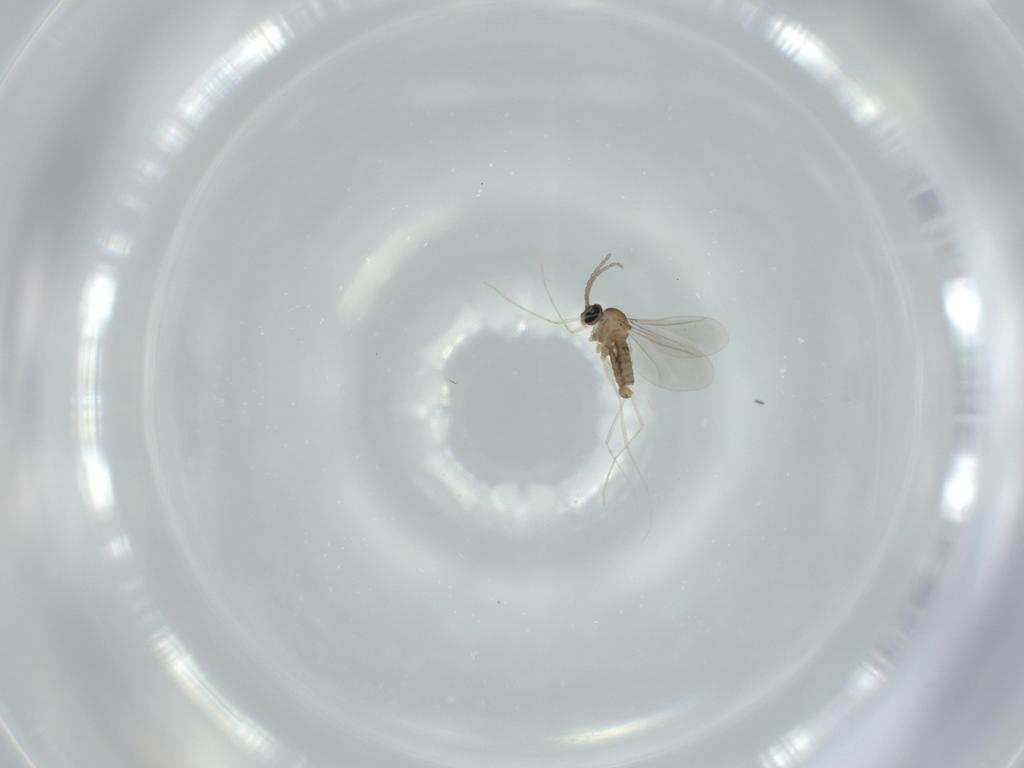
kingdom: Animalia
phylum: Arthropoda
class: Insecta
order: Diptera
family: Cecidomyiidae
